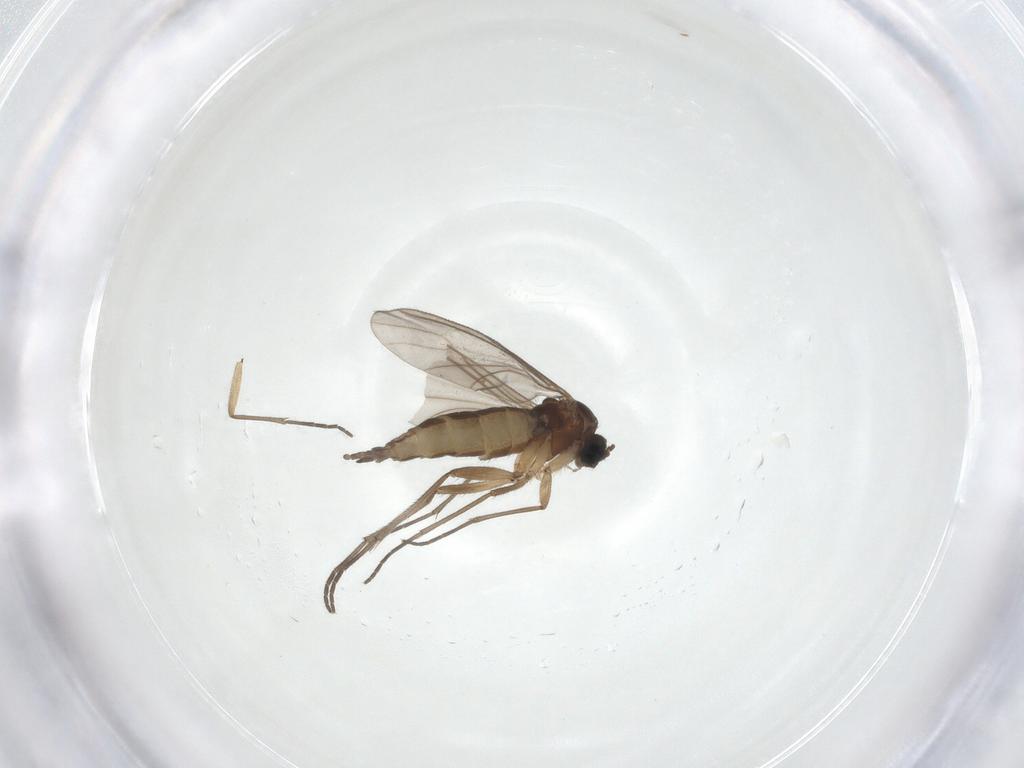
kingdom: Animalia
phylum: Arthropoda
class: Insecta
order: Diptera
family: Sciaridae
